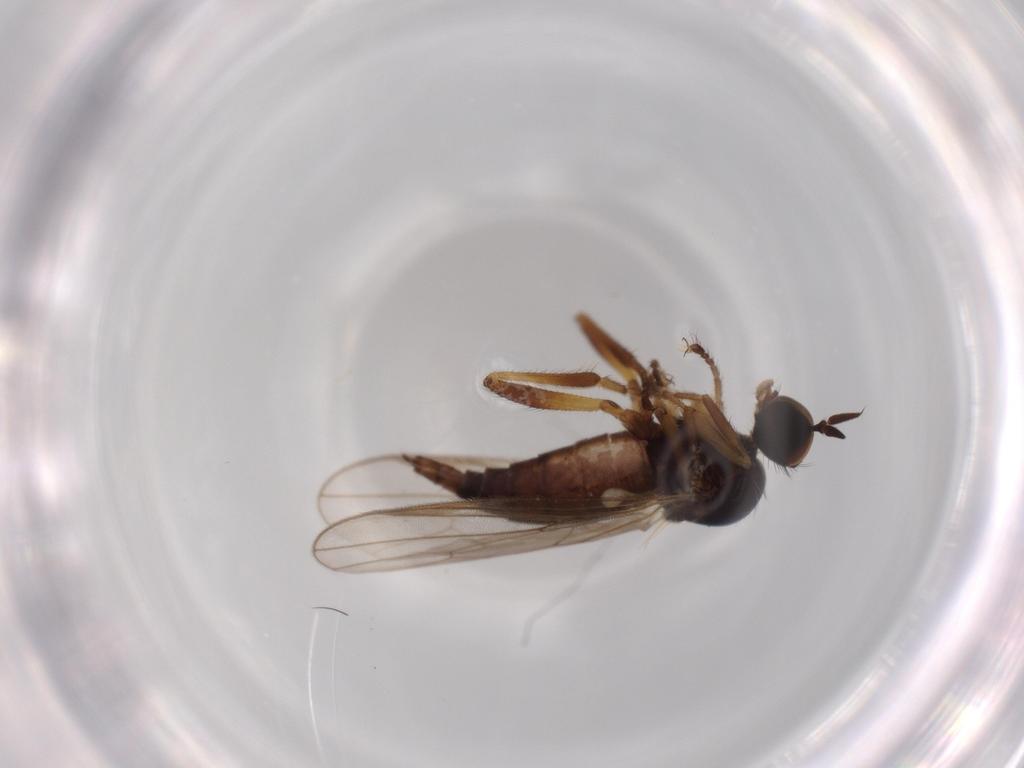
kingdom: Animalia
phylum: Arthropoda
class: Insecta
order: Diptera
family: Hybotidae
